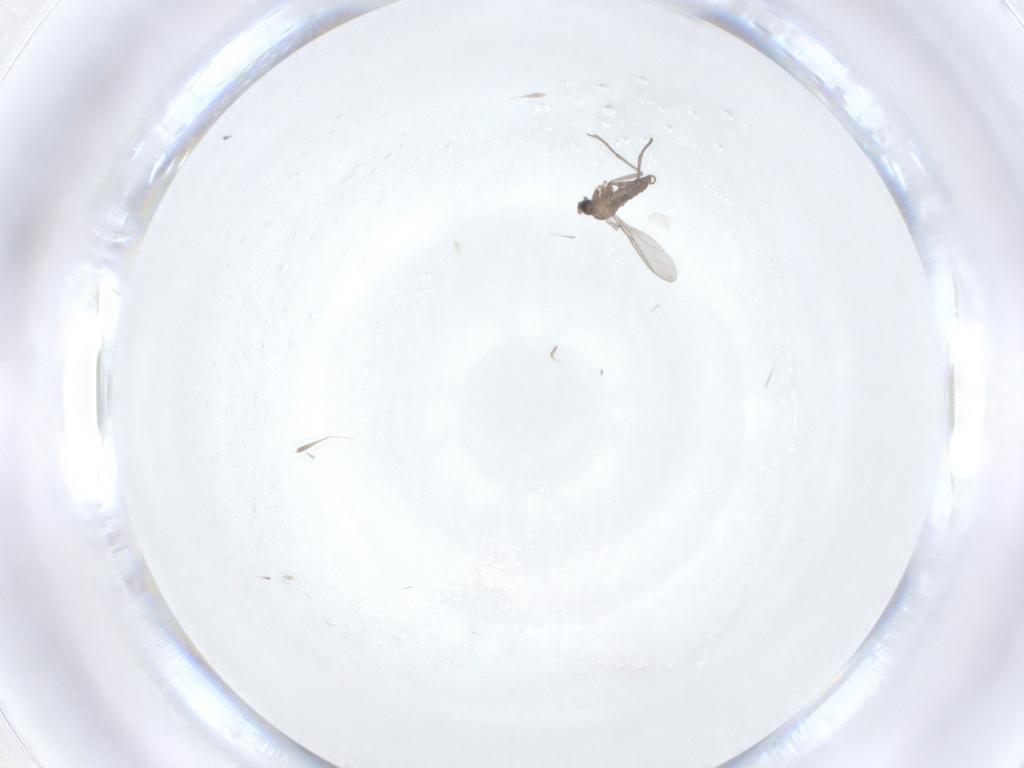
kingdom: Animalia
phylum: Arthropoda
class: Insecta
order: Diptera
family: Sciaridae
